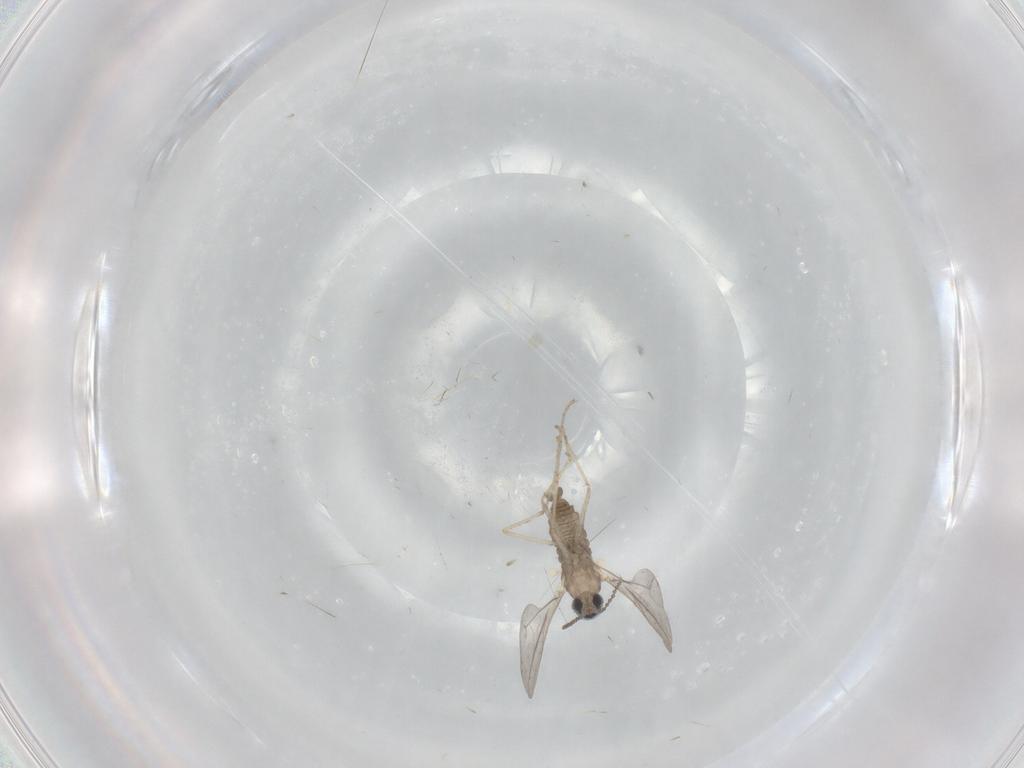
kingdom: Animalia
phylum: Arthropoda
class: Insecta
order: Diptera
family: Cecidomyiidae
